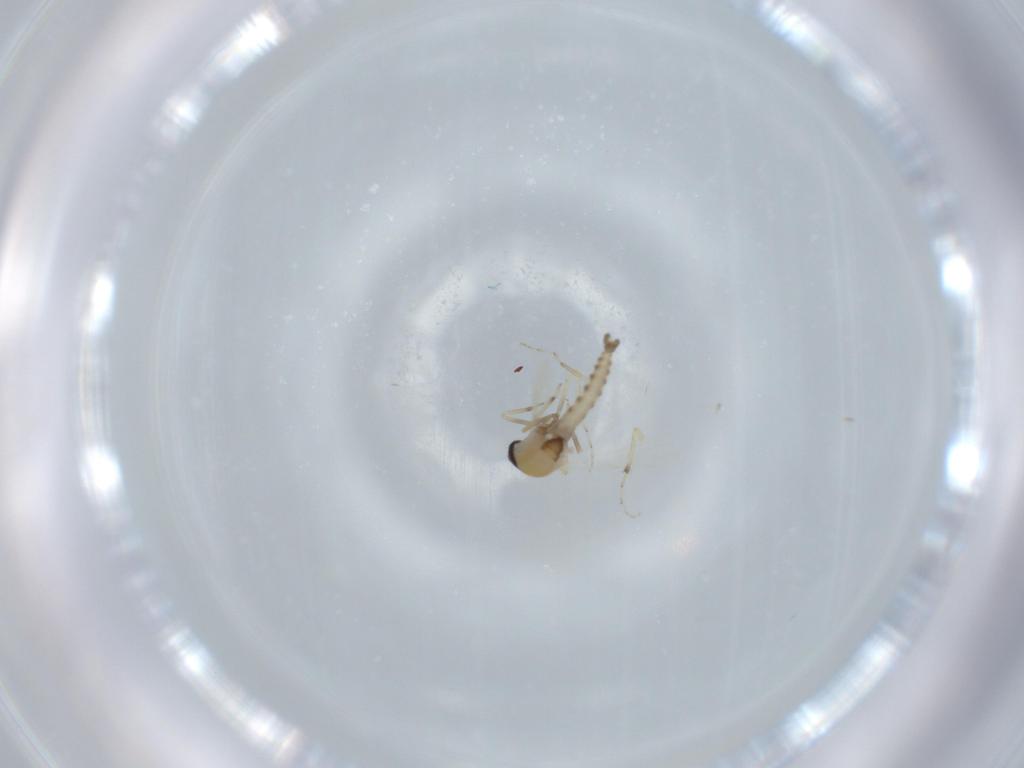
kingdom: Animalia
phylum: Arthropoda
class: Insecta
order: Diptera
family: Ceratopogonidae
